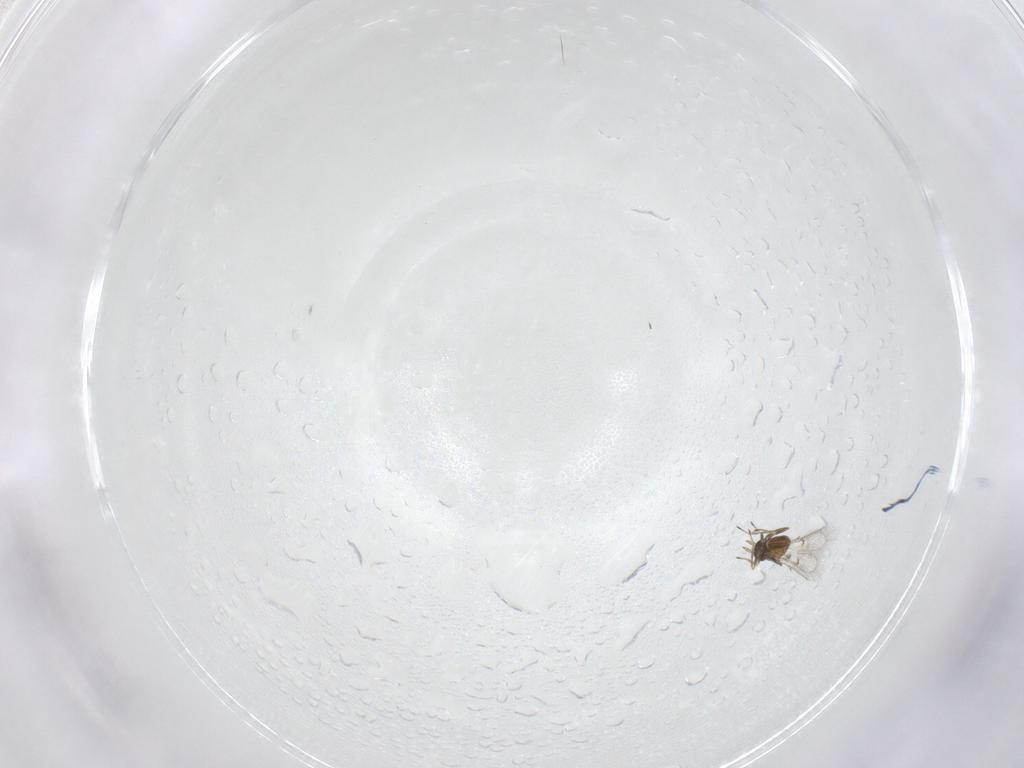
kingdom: Animalia
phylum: Arthropoda
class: Insecta
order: Hymenoptera
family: Trichogrammatidae
